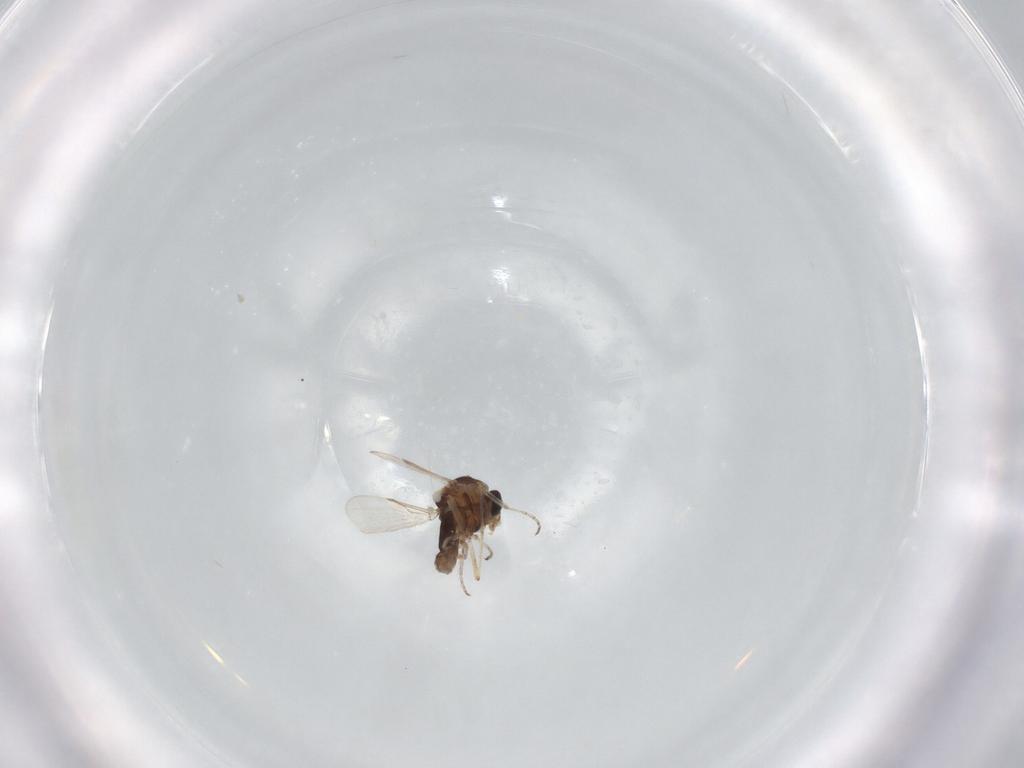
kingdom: Animalia
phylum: Arthropoda
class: Insecta
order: Diptera
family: Ceratopogonidae
